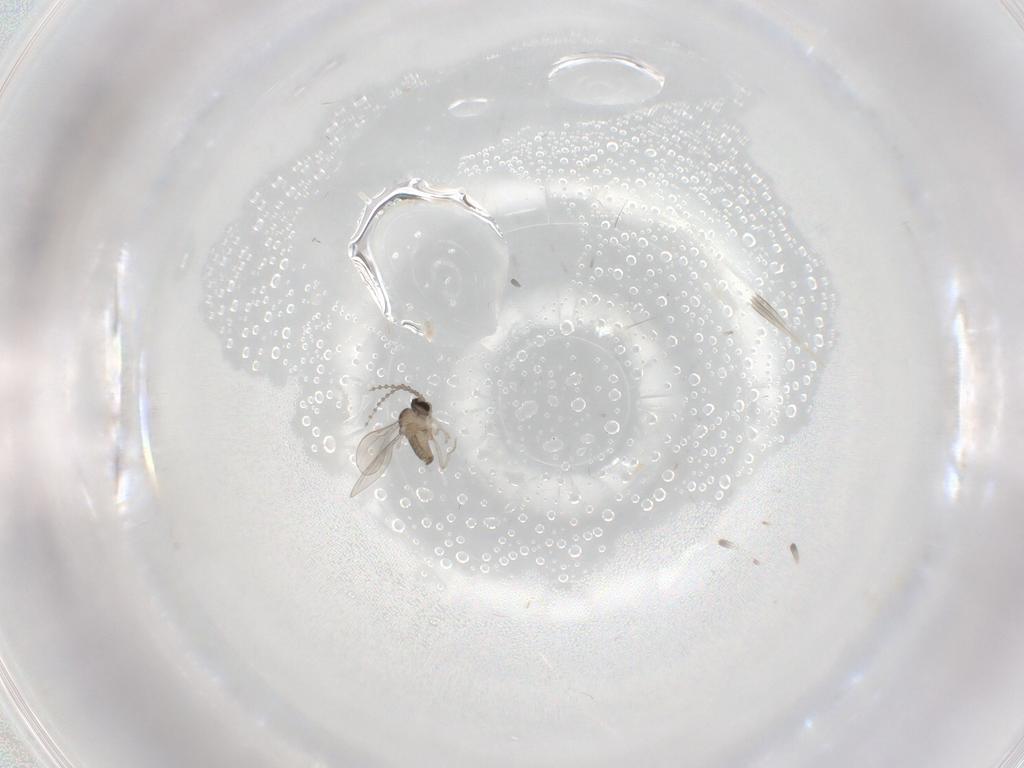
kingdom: Animalia
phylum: Arthropoda
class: Insecta
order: Diptera
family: Cecidomyiidae
